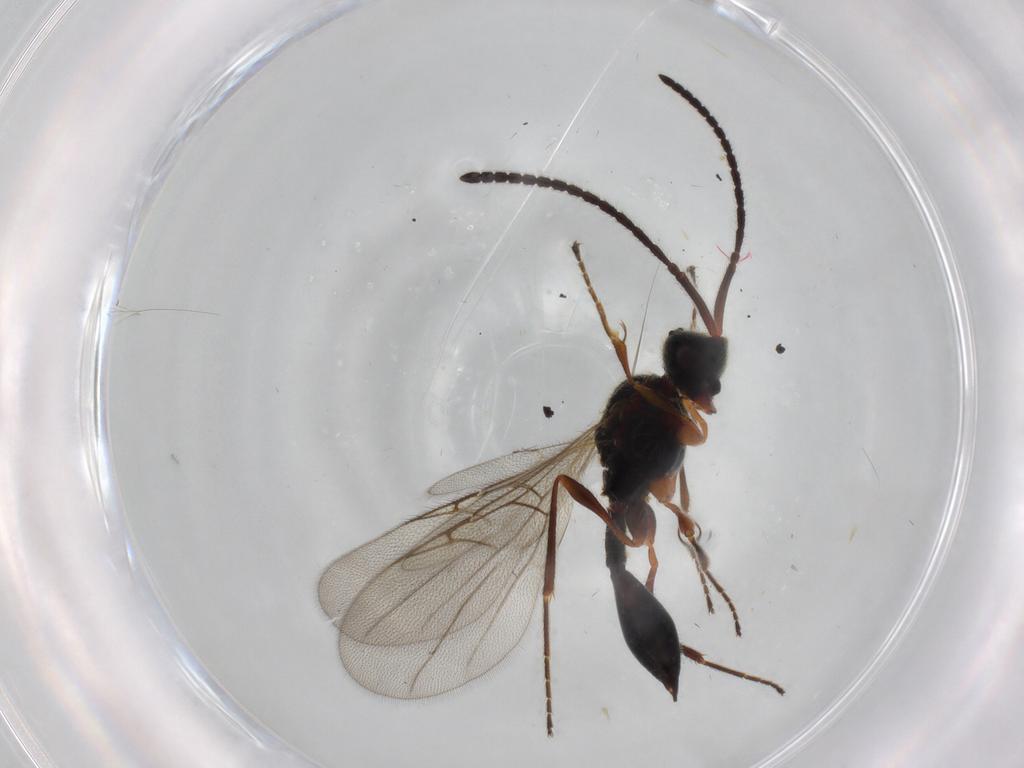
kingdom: Animalia
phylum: Arthropoda
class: Insecta
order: Hymenoptera
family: Diapriidae
